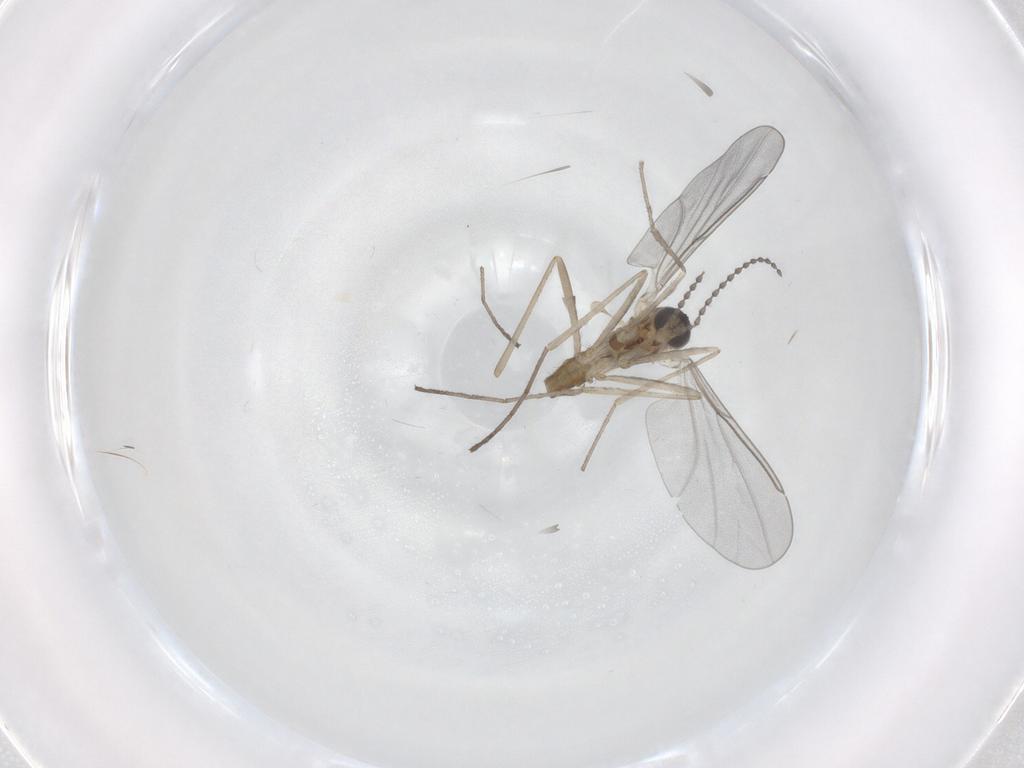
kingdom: Animalia
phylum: Arthropoda
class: Insecta
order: Diptera
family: Cecidomyiidae
